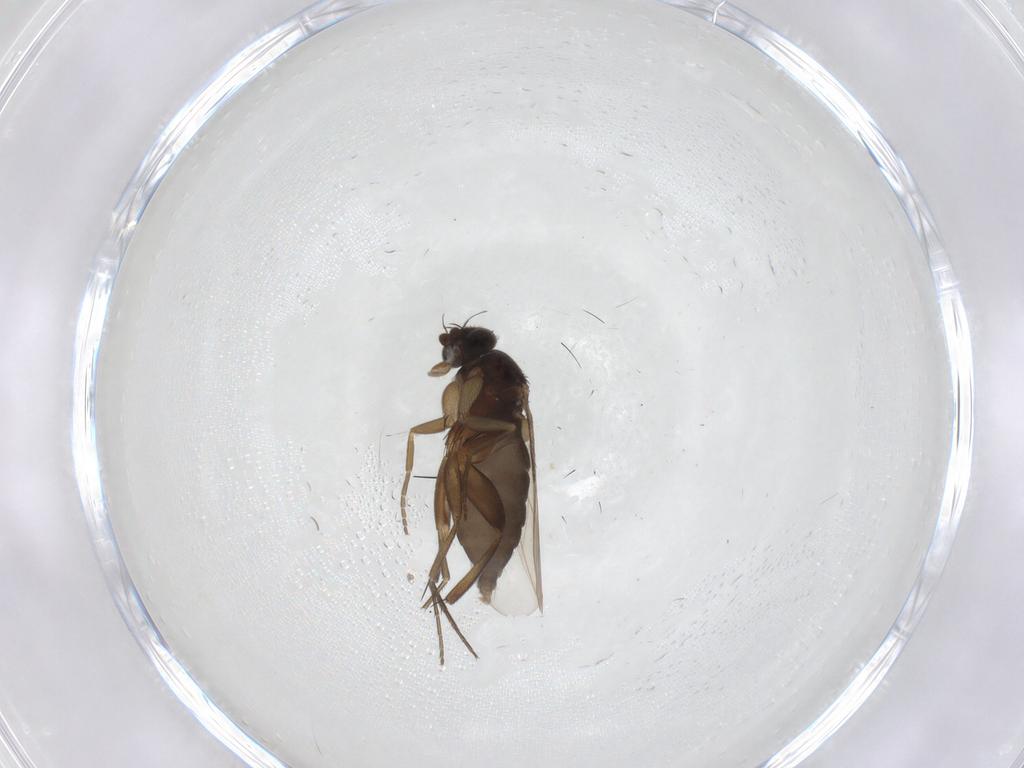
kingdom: Animalia
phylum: Arthropoda
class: Insecta
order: Diptera
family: Phoridae
